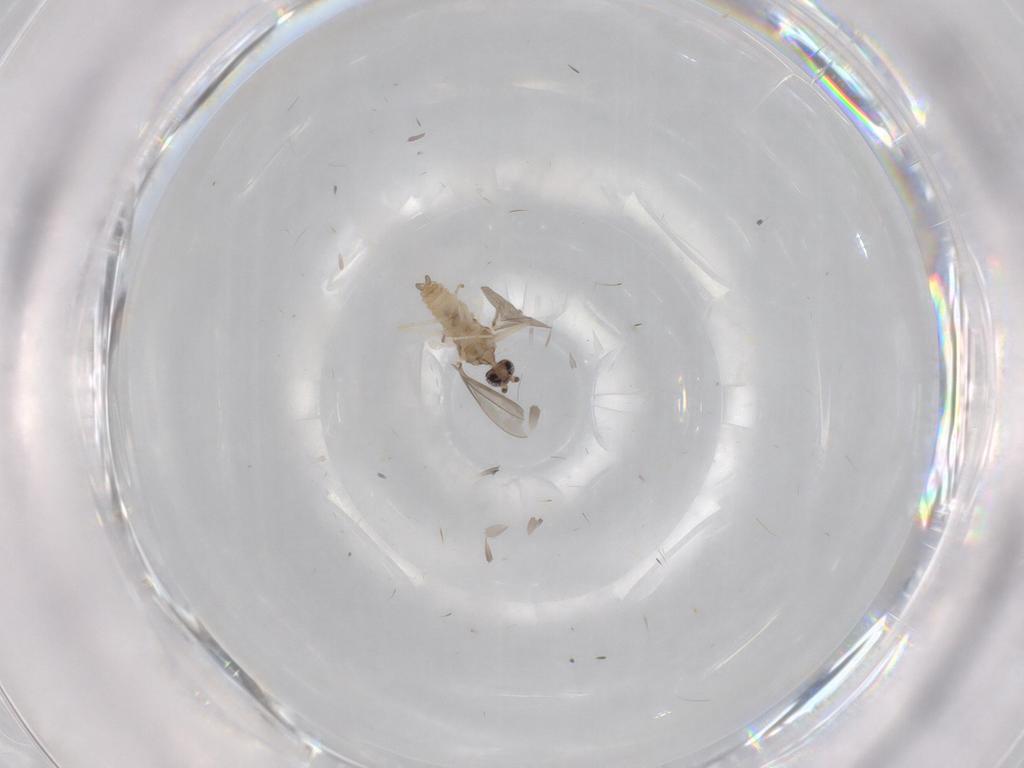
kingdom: Animalia
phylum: Arthropoda
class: Insecta
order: Diptera
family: Cecidomyiidae
